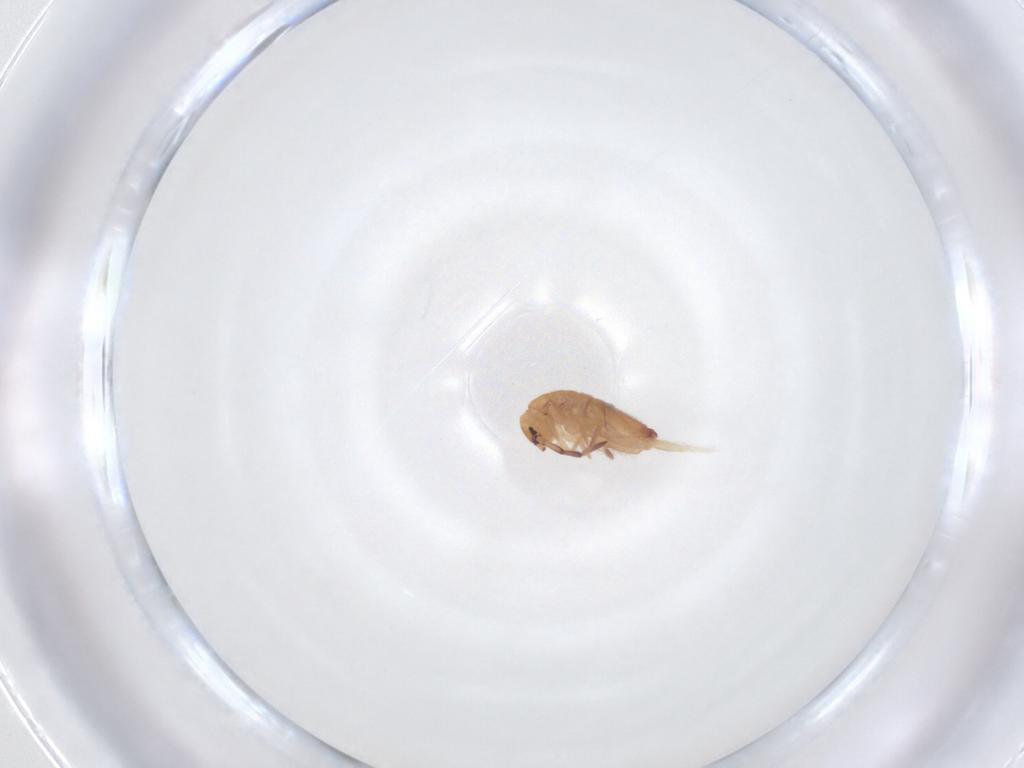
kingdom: Animalia
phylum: Arthropoda
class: Collembola
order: Entomobryomorpha
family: Entomobryidae
